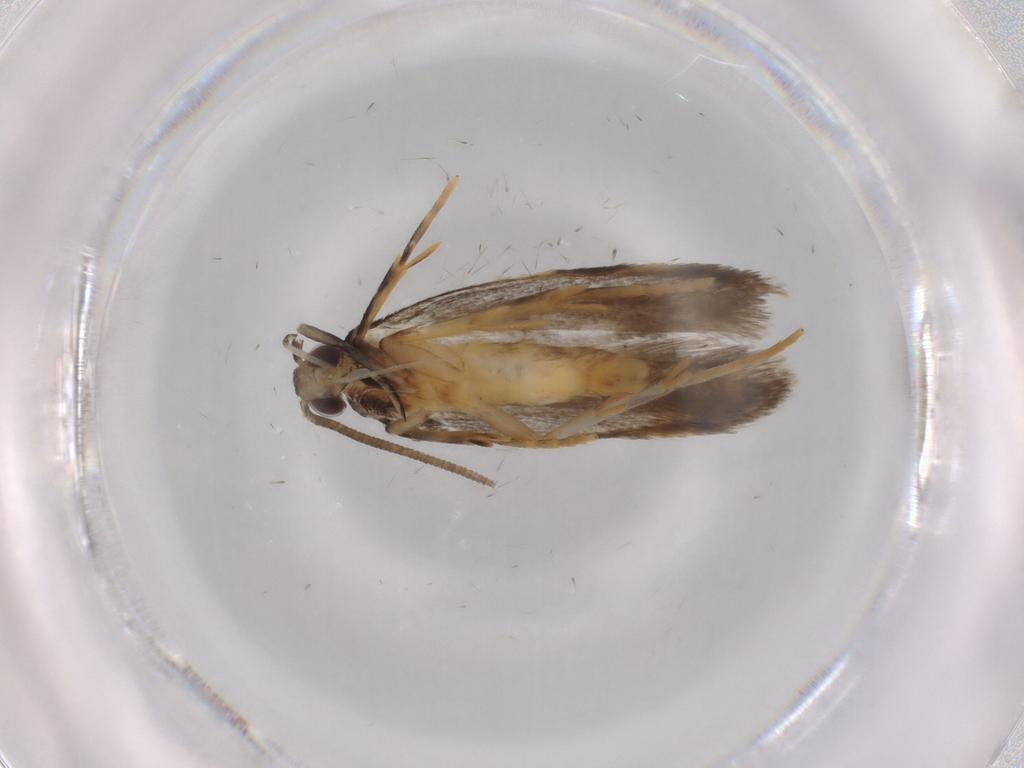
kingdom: Animalia
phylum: Arthropoda
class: Insecta
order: Lepidoptera
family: Autostichidae
